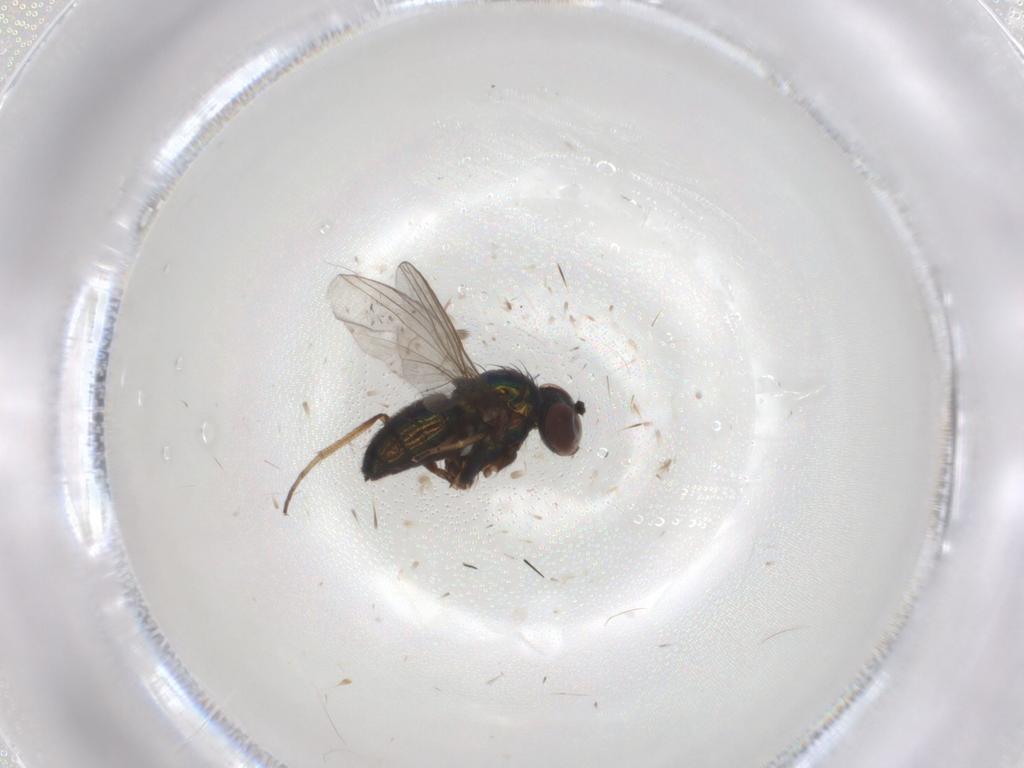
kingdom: Animalia
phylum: Arthropoda
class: Insecta
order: Diptera
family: Dolichopodidae
